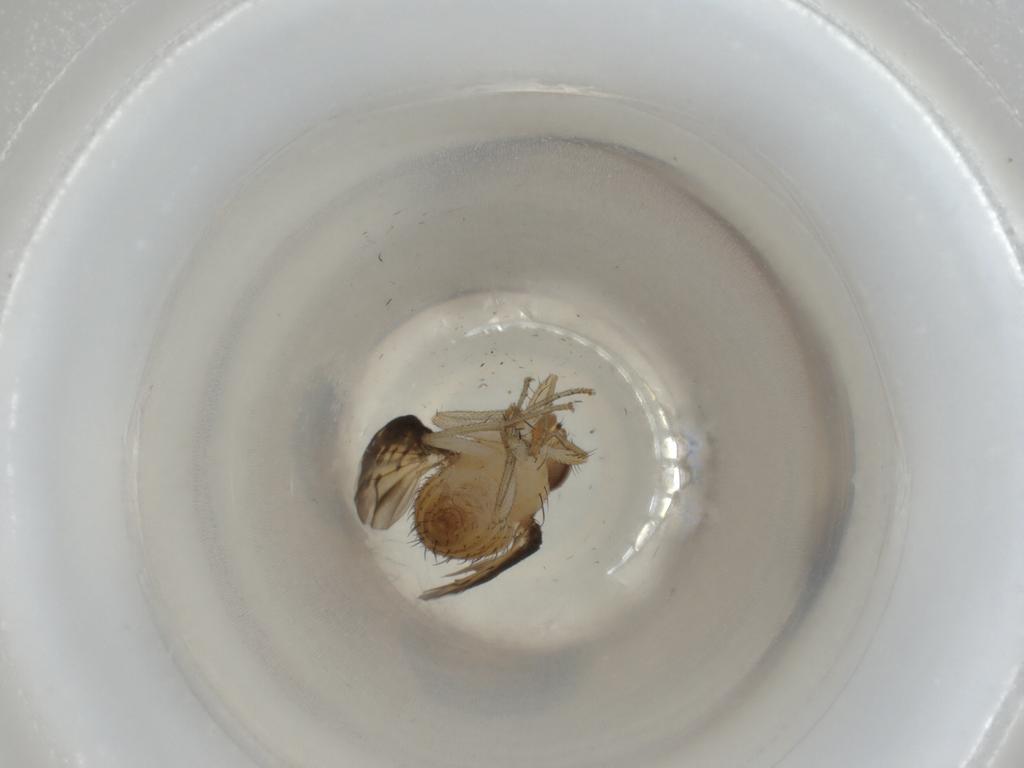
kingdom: Animalia
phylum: Arthropoda
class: Insecta
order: Diptera
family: Lauxaniidae
